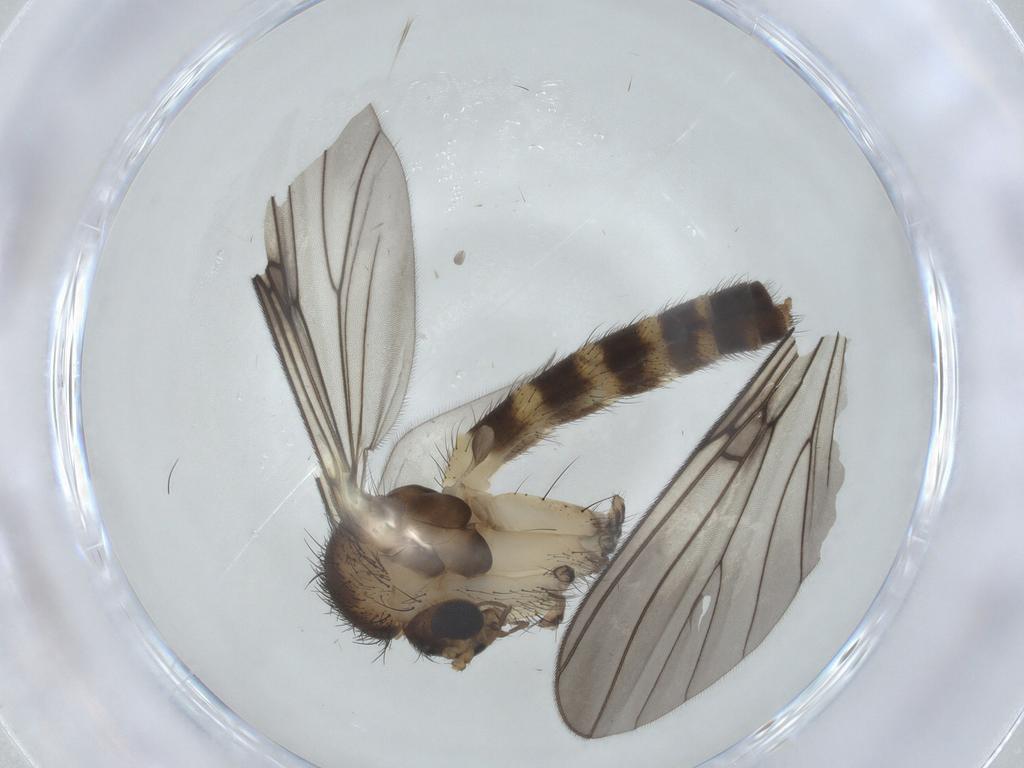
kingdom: Animalia
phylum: Arthropoda
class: Insecta
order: Diptera
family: Mycetophilidae
